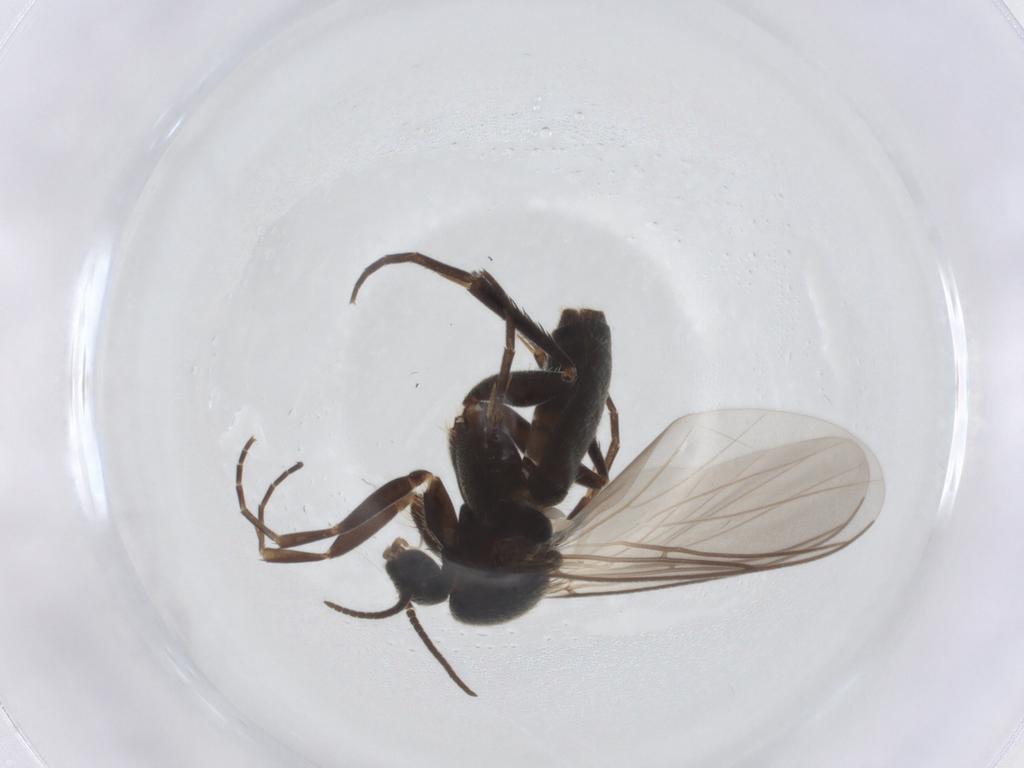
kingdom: Animalia
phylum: Arthropoda
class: Insecta
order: Diptera
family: Mycetophilidae
